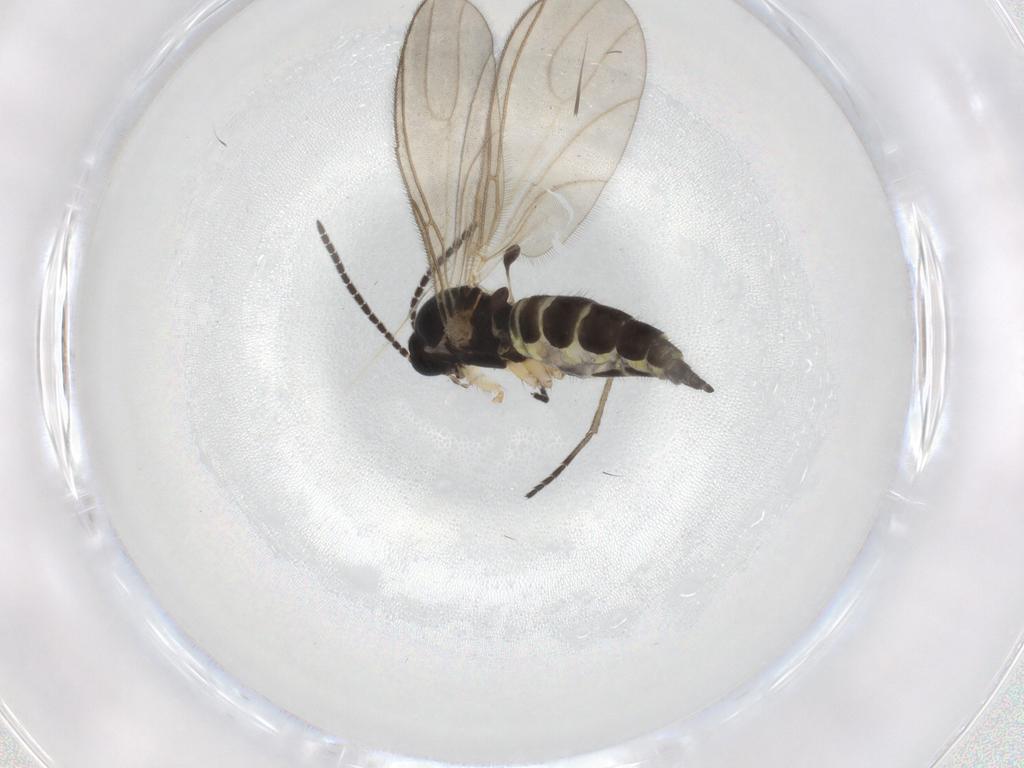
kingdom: Animalia
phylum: Arthropoda
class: Insecta
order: Diptera
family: Sciaridae
